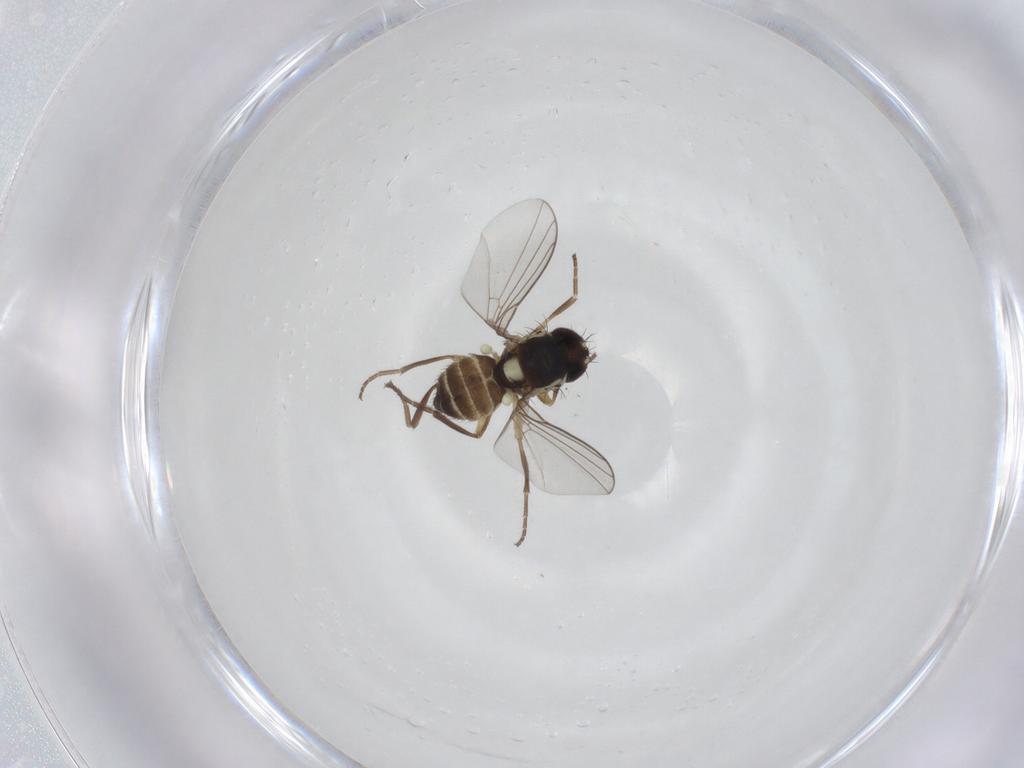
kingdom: Animalia
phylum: Arthropoda
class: Insecta
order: Diptera
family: Agromyzidae
